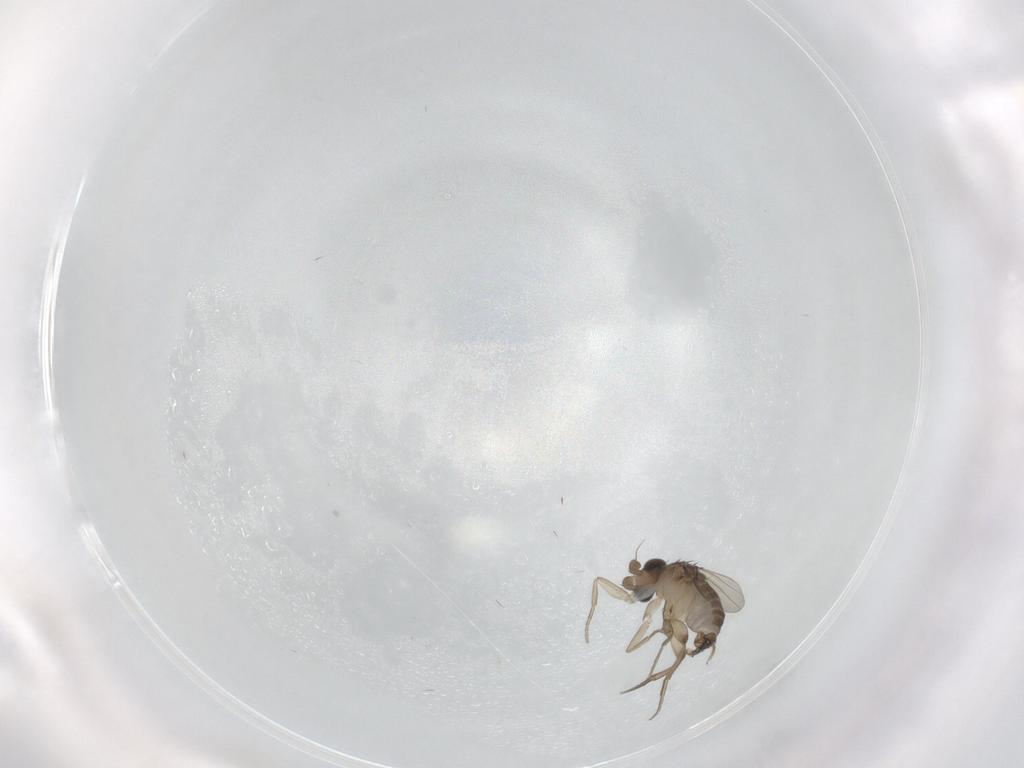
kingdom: Animalia
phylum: Arthropoda
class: Insecta
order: Diptera
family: Phoridae
